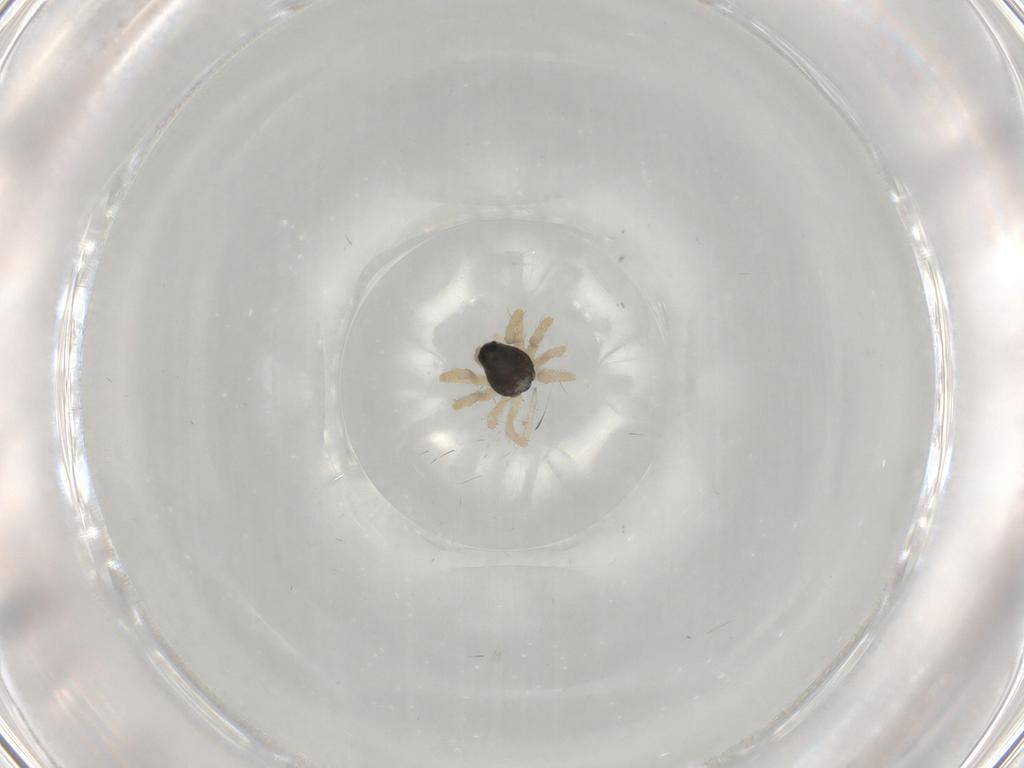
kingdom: Animalia
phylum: Arthropoda
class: Arachnida
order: Araneae
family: Linyphiidae
